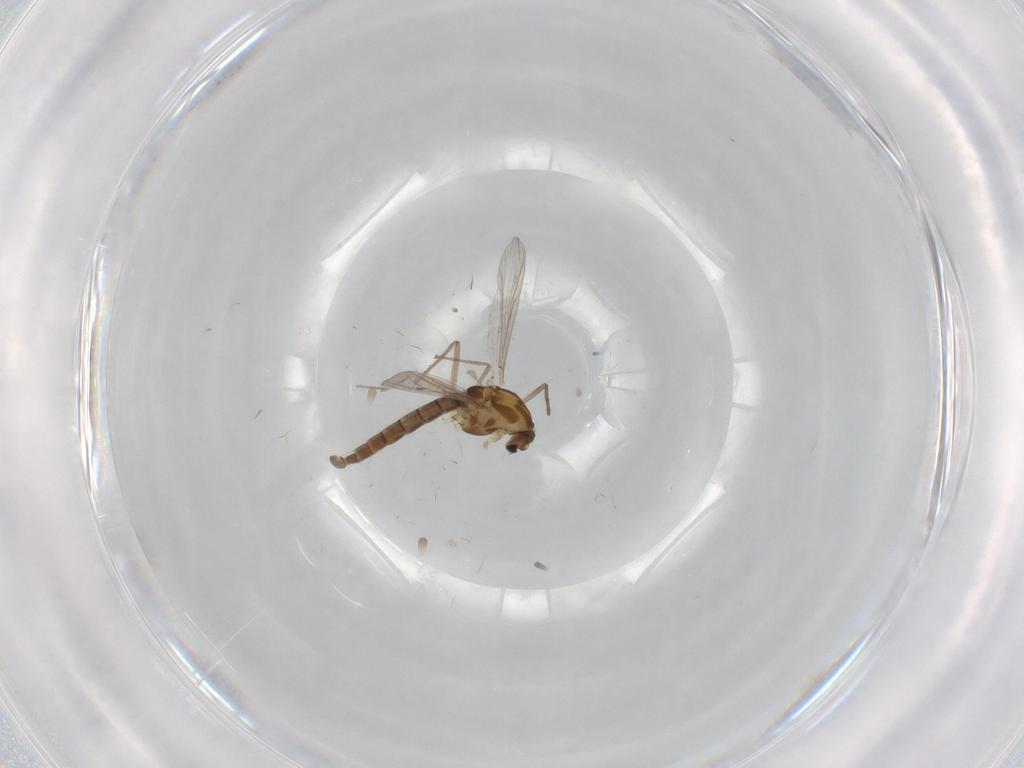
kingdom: Animalia
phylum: Arthropoda
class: Insecta
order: Diptera
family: Chironomidae
